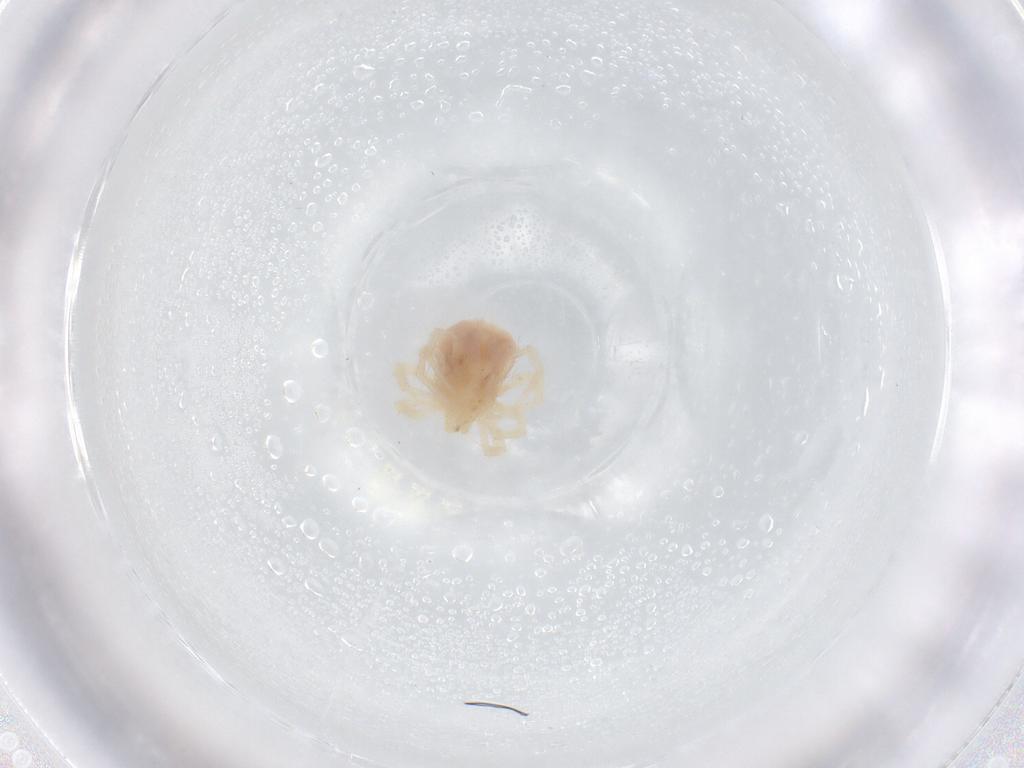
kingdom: Animalia
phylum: Arthropoda
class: Arachnida
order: Trombidiformes
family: Anystidae
